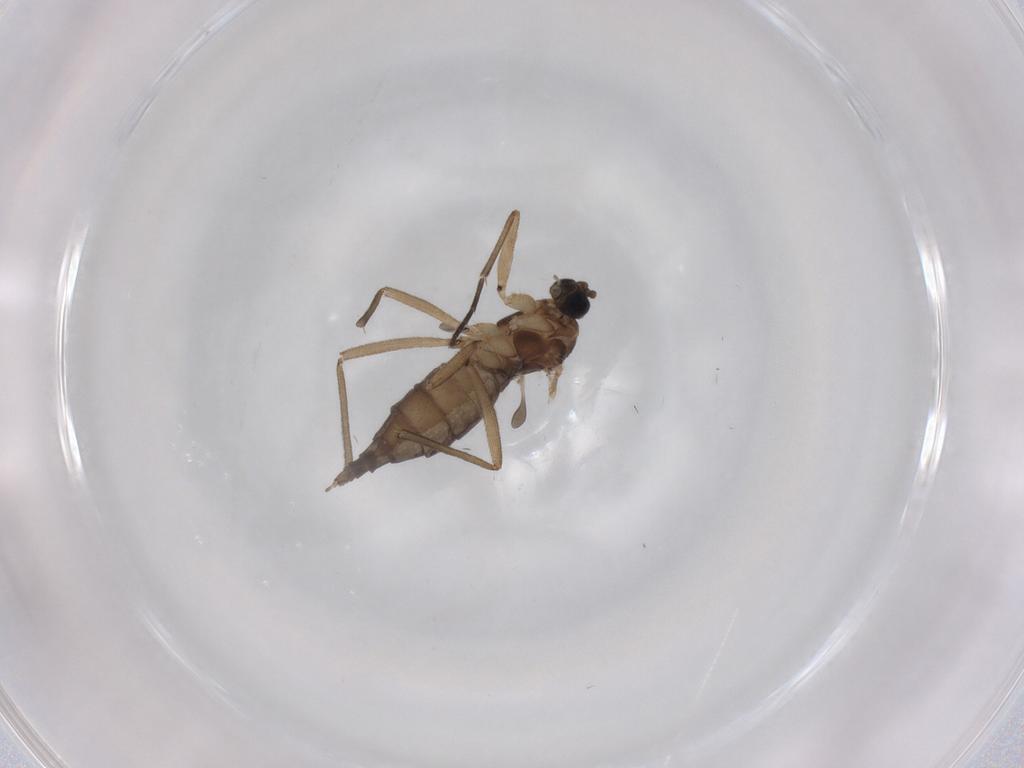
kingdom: Animalia
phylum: Arthropoda
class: Insecta
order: Diptera
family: Sciaridae
